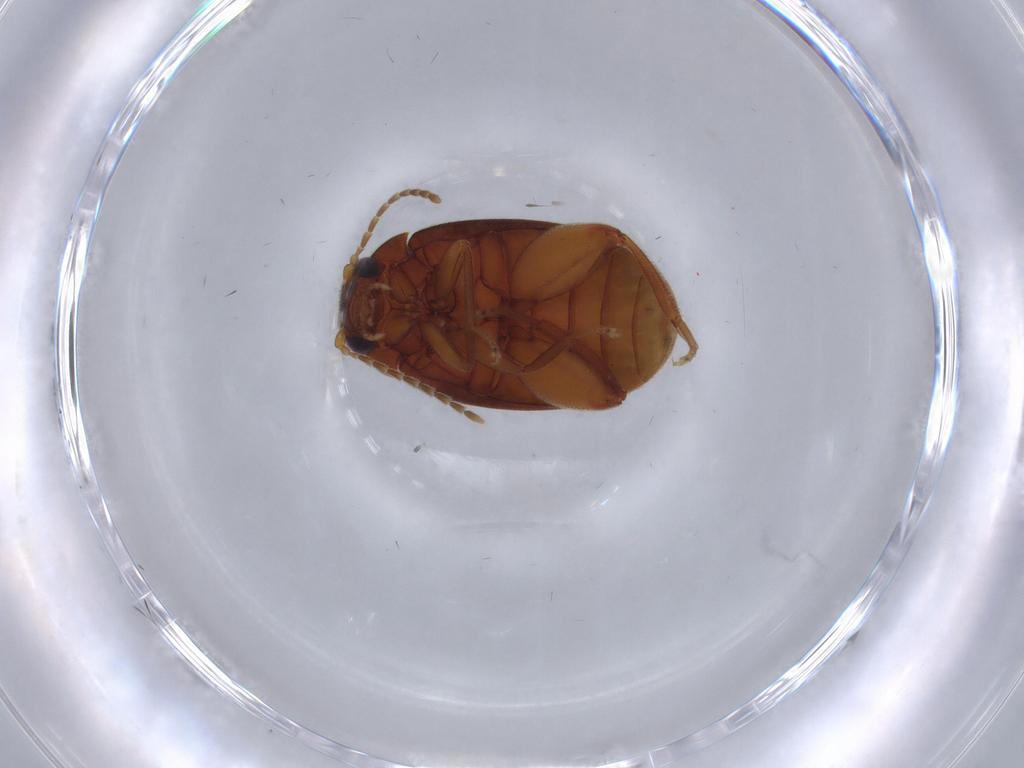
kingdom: Animalia
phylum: Arthropoda
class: Insecta
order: Coleoptera
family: Scirtidae
